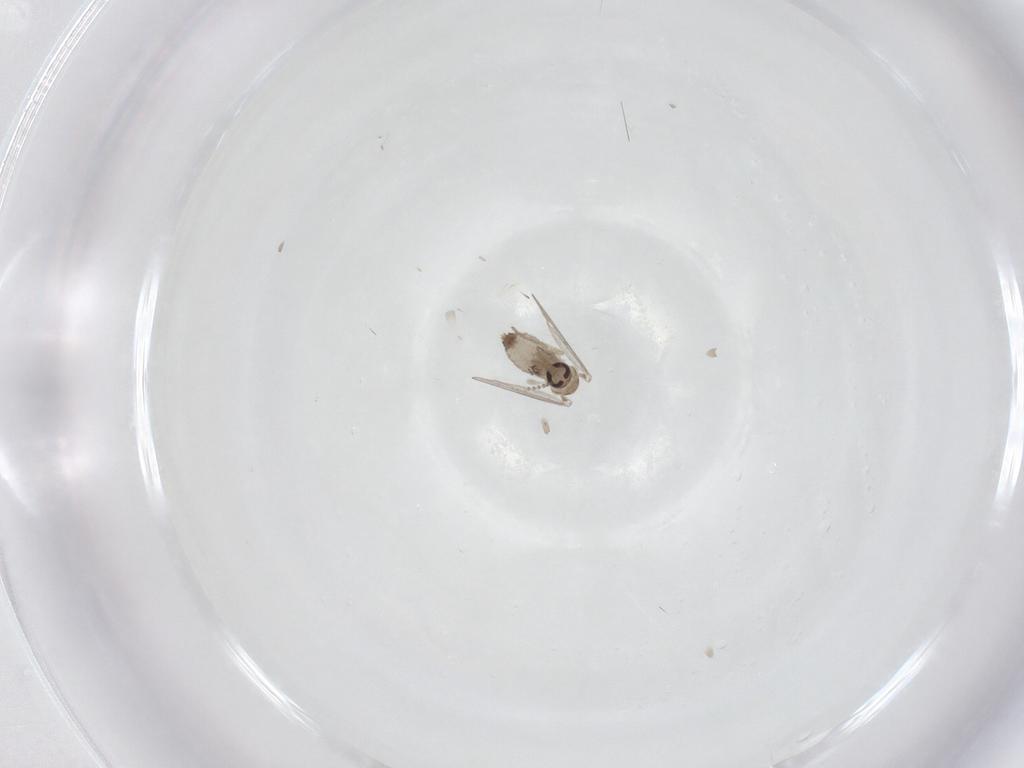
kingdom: Animalia
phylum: Arthropoda
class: Insecta
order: Diptera
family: Psychodidae
